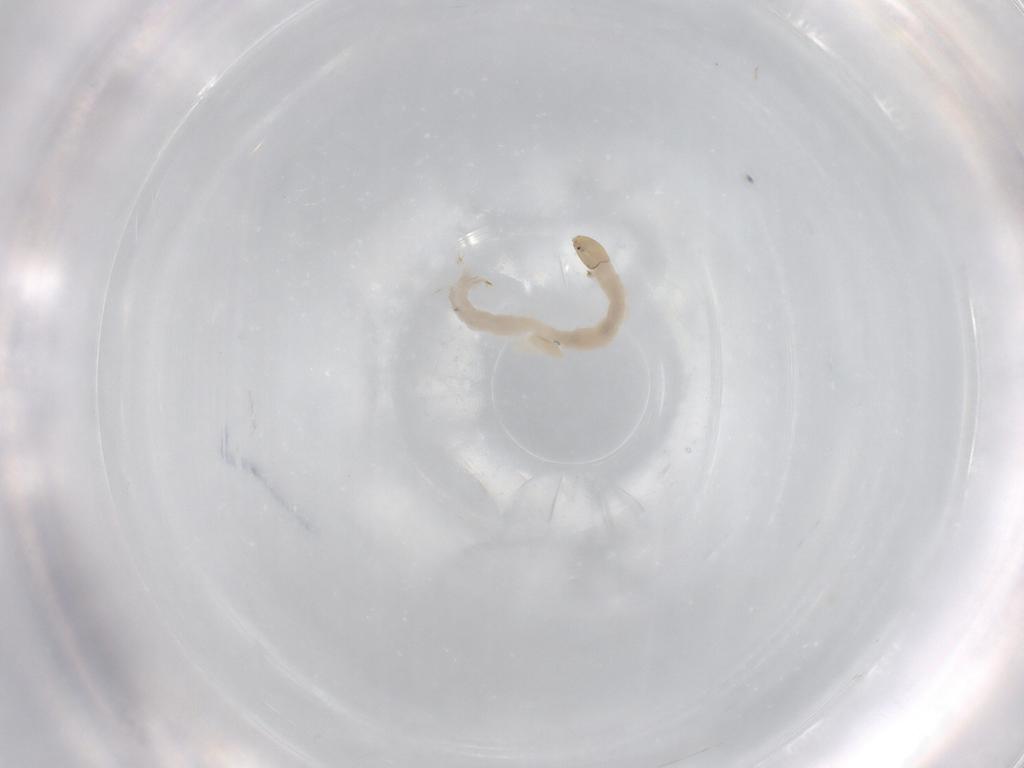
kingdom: Animalia
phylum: Arthropoda
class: Insecta
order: Diptera
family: Chironomidae
